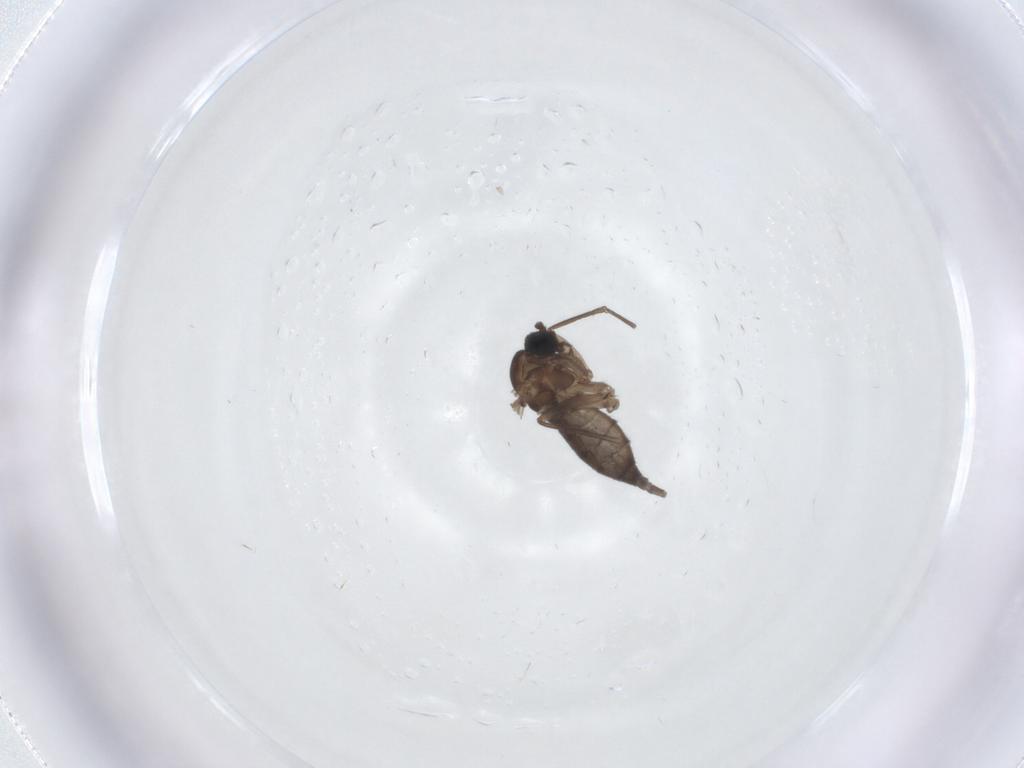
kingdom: Animalia
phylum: Arthropoda
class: Insecta
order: Diptera
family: Sciaridae
